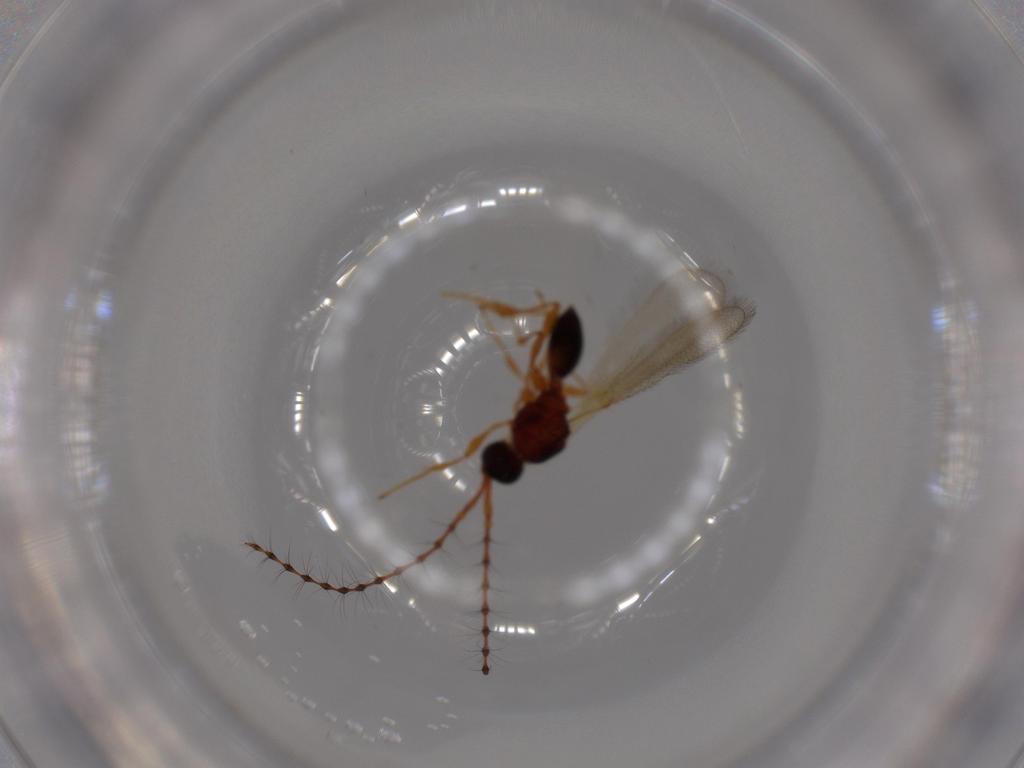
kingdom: Animalia
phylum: Arthropoda
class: Insecta
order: Hymenoptera
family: Diapriidae
